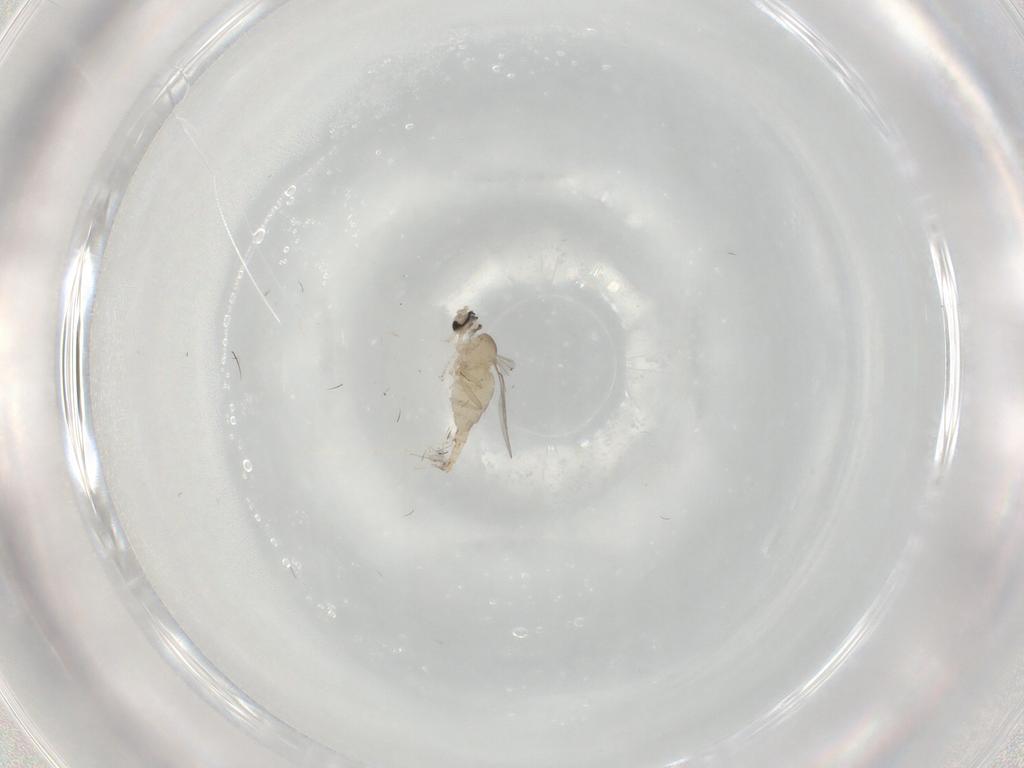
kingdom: Animalia
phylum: Arthropoda
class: Insecta
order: Diptera
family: Cecidomyiidae
